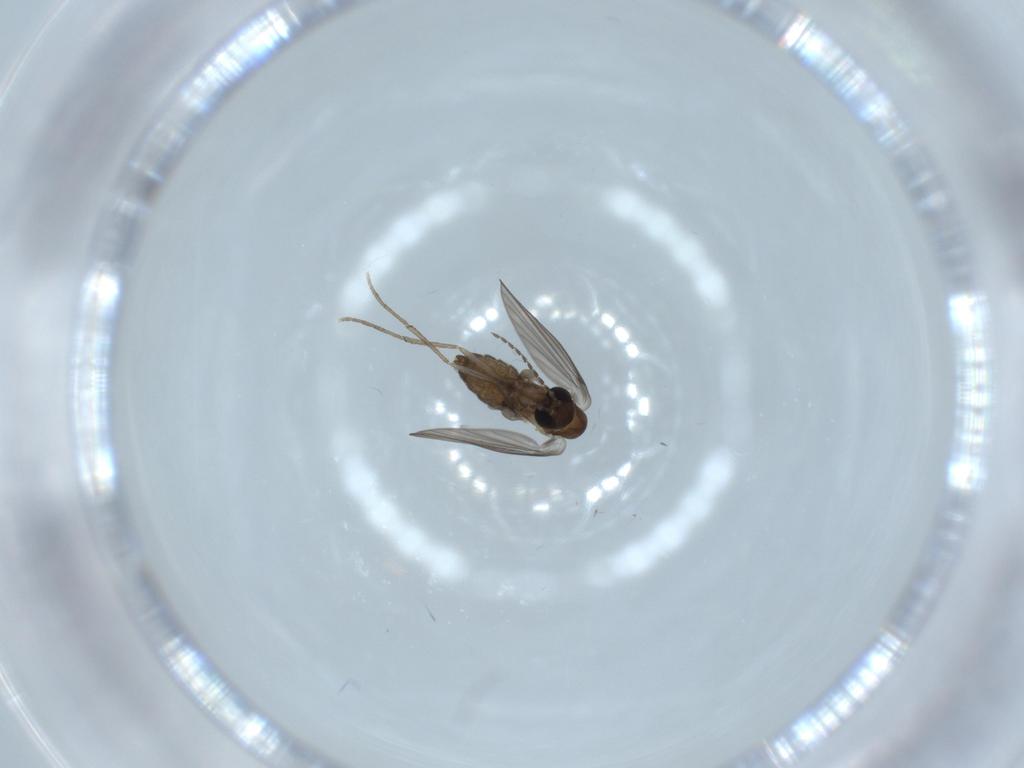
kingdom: Animalia
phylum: Arthropoda
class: Insecta
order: Diptera
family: Psychodidae
